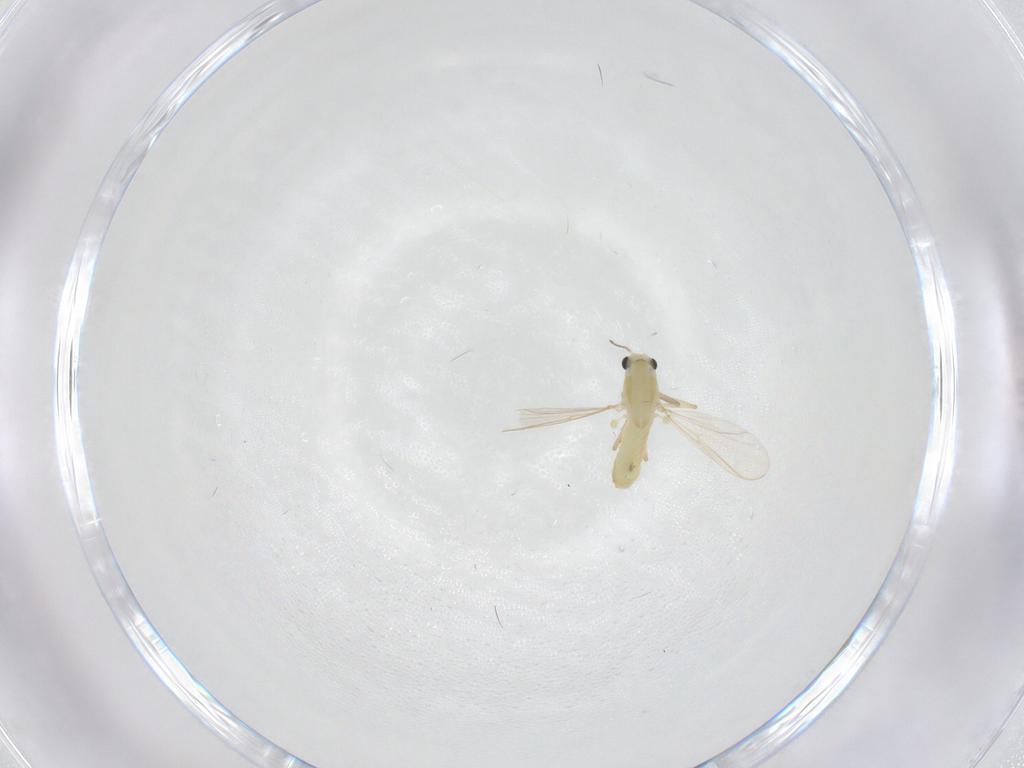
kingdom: Animalia
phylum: Arthropoda
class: Insecta
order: Diptera
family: Chironomidae
